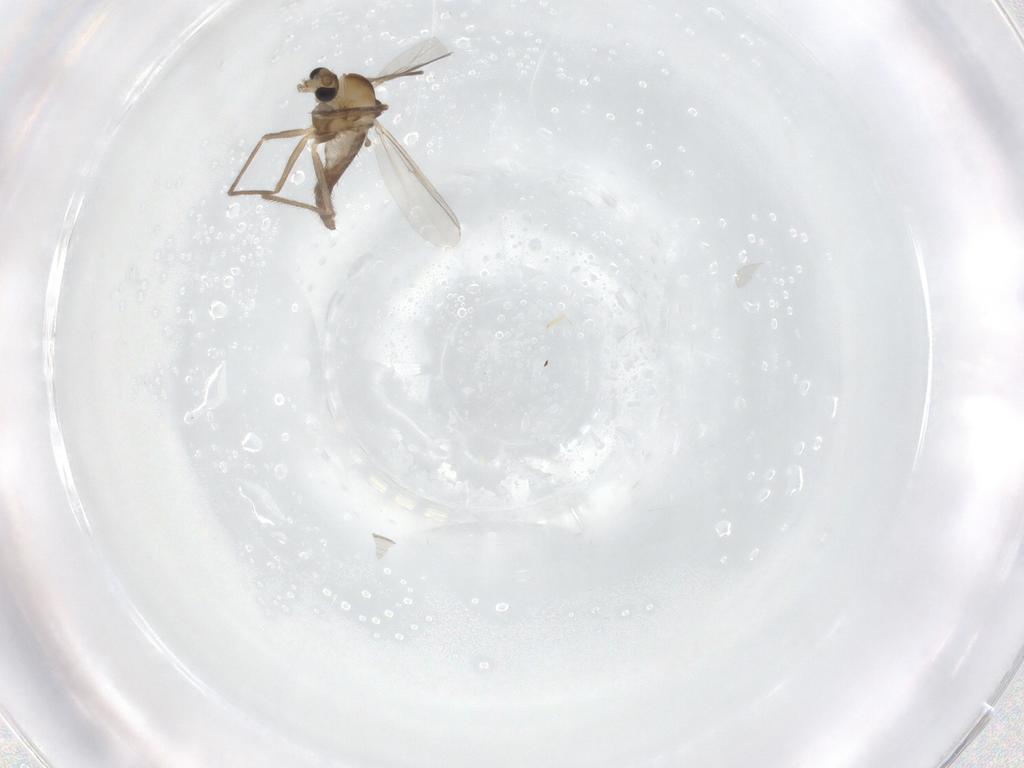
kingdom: Animalia
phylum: Arthropoda
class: Insecta
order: Diptera
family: Chironomidae
